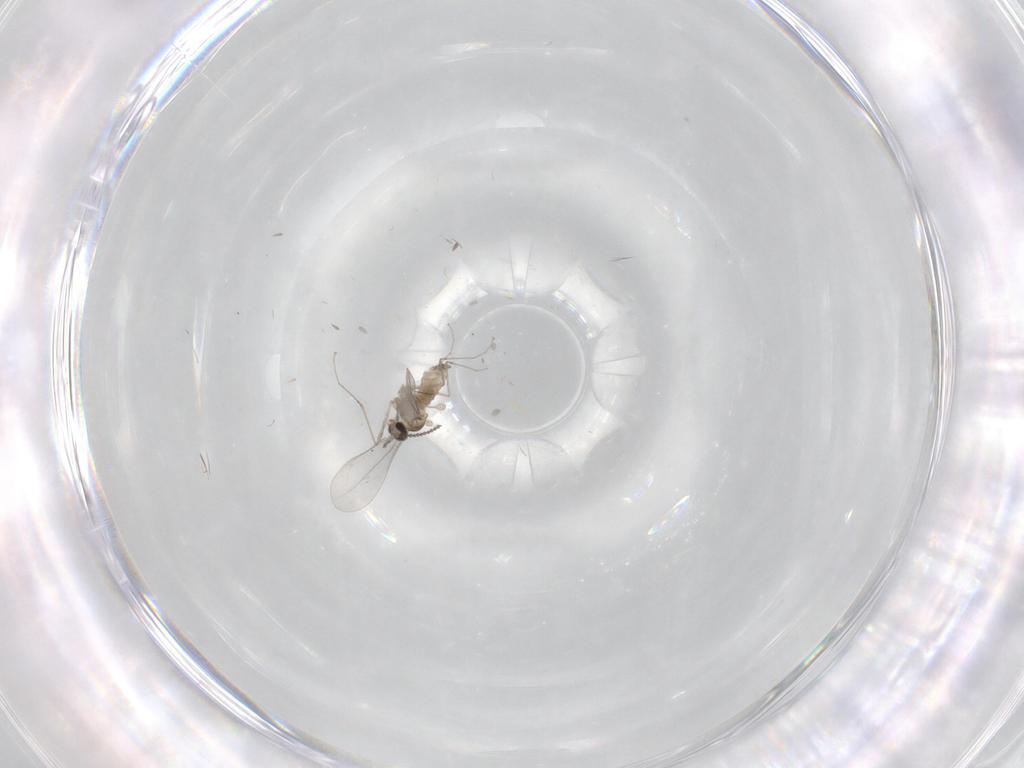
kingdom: Animalia
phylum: Arthropoda
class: Insecta
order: Diptera
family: Cecidomyiidae
